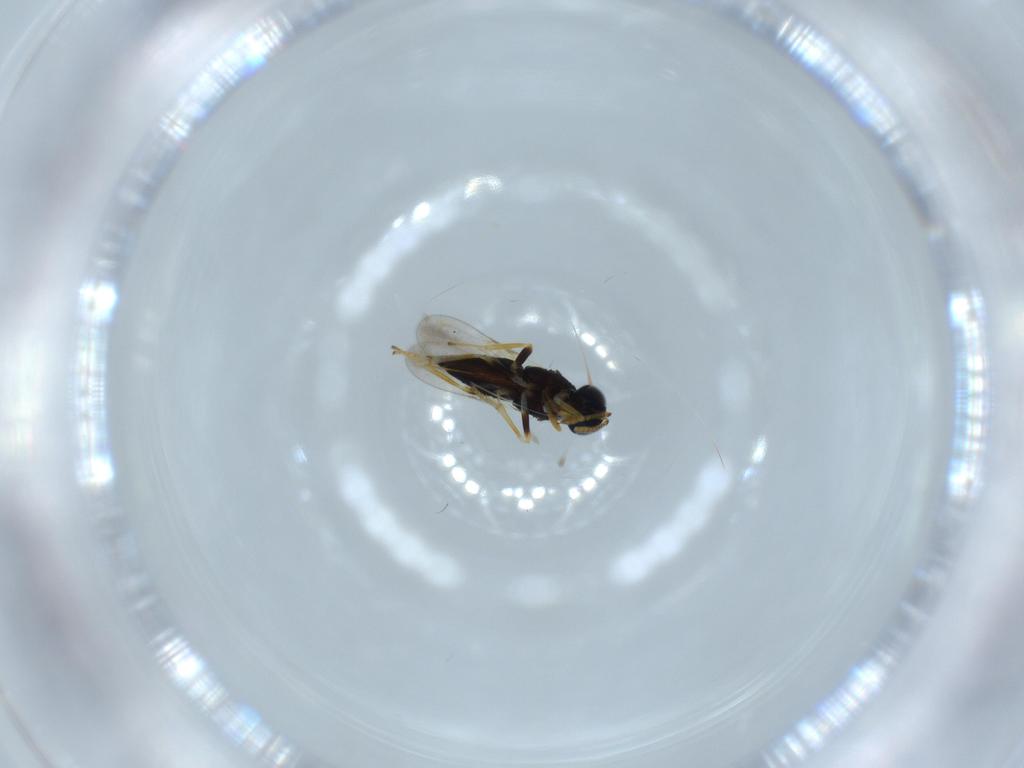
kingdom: Animalia
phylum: Arthropoda
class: Insecta
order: Hymenoptera
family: Encyrtidae
